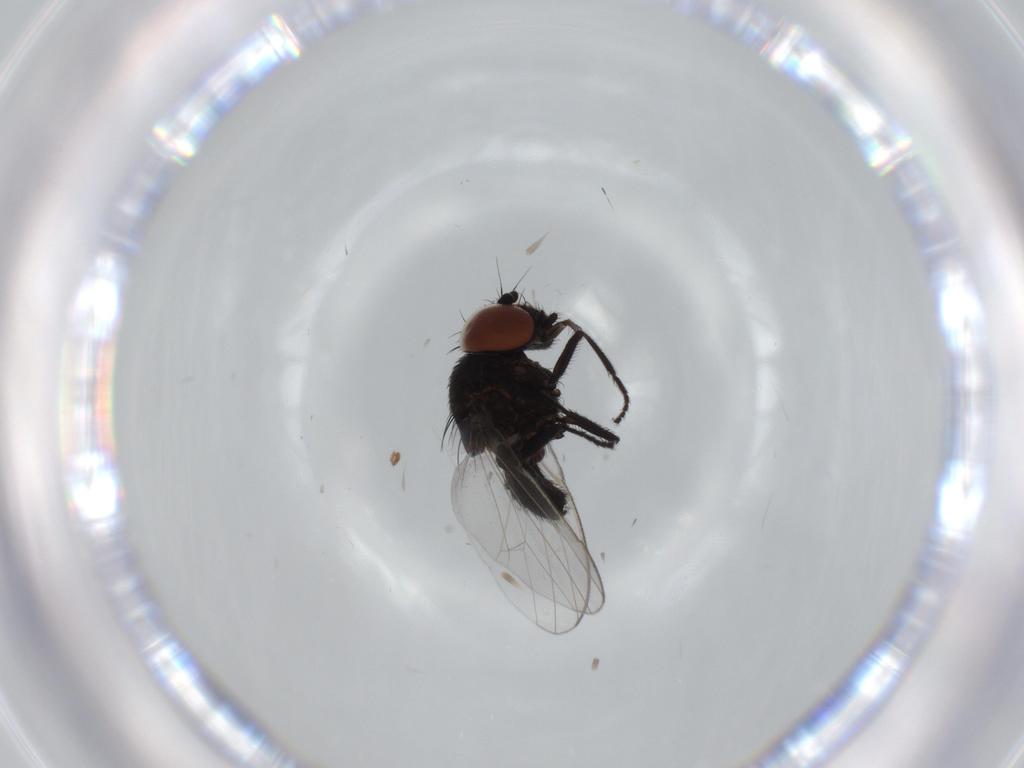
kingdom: Animalia
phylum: Arthropoda
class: Insecta
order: Diptera
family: Milichiidae
